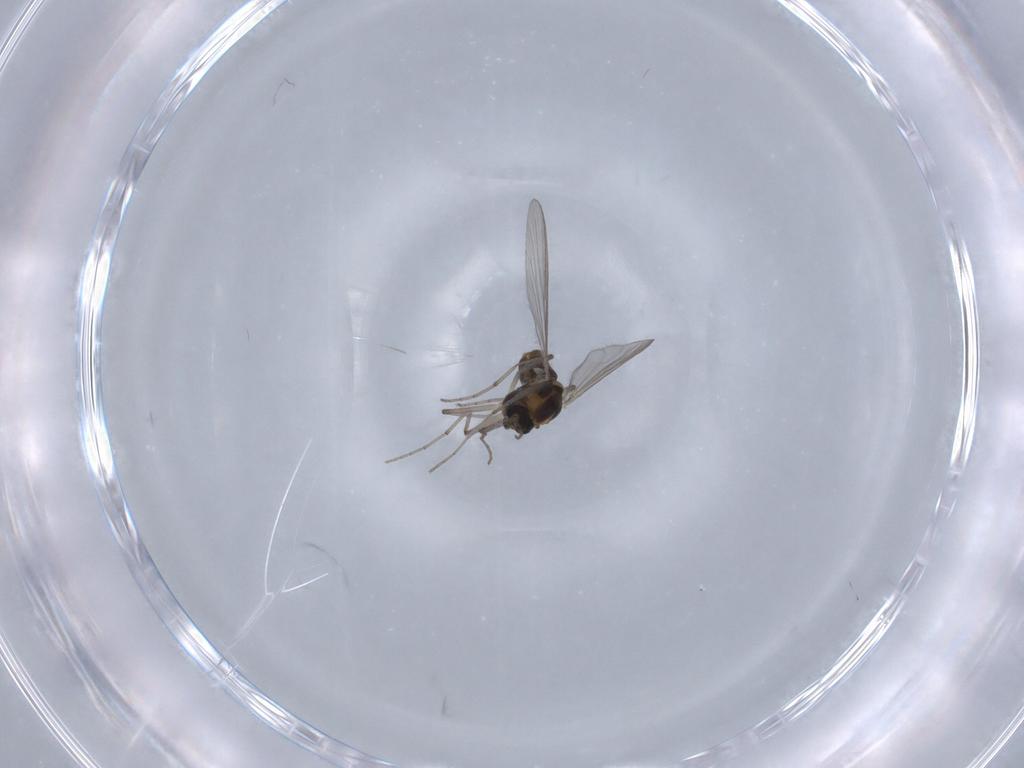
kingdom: Animalia
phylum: Arthropoda
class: Insecta
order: Diptera
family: Chironomidae
